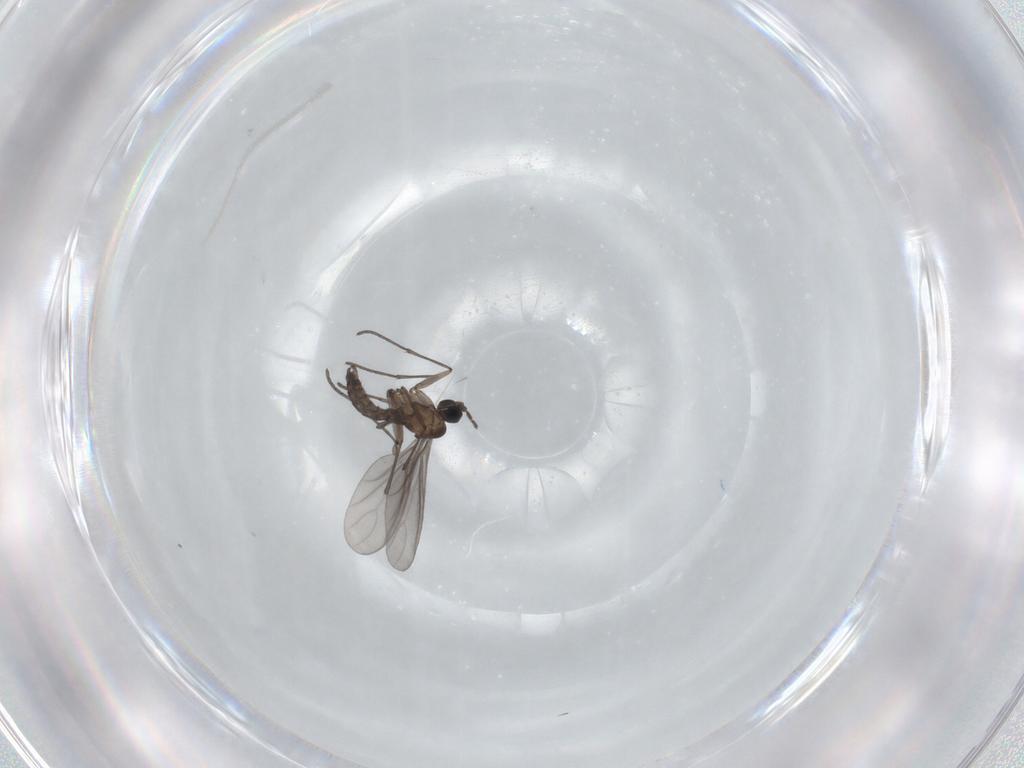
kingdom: Animalia
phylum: Arthropoda
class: Insecta
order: Diptera
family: Sciaridae
